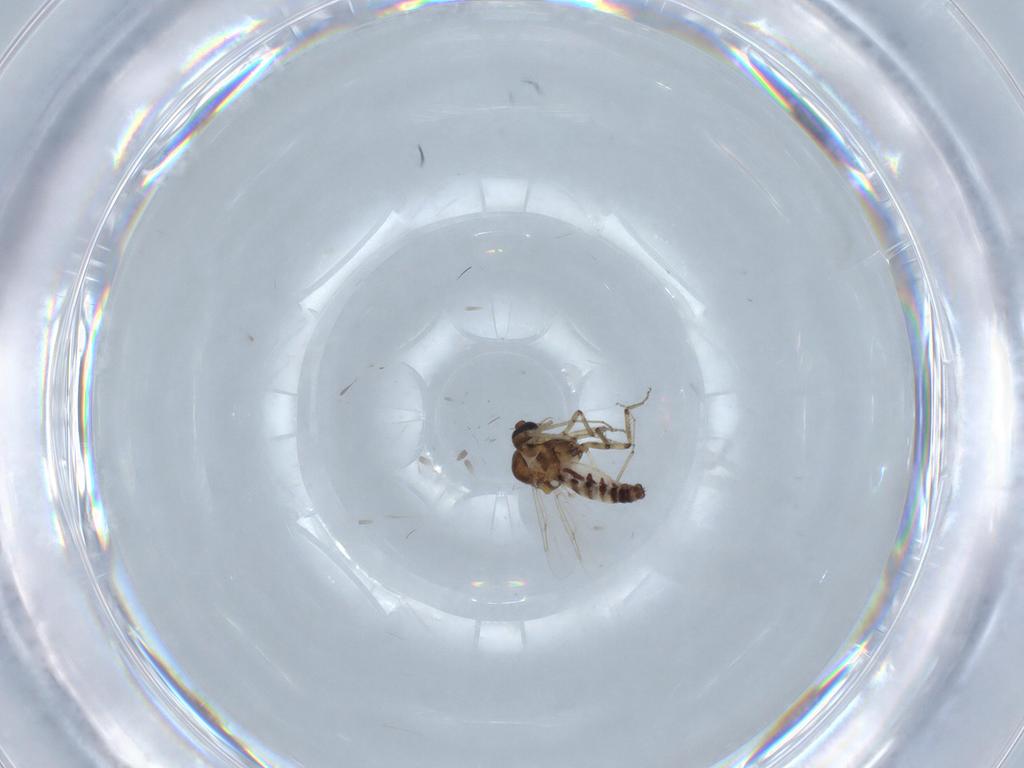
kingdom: Animalia
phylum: Arthropoda
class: Insecta
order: Diptera
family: Ceratopogonidae
